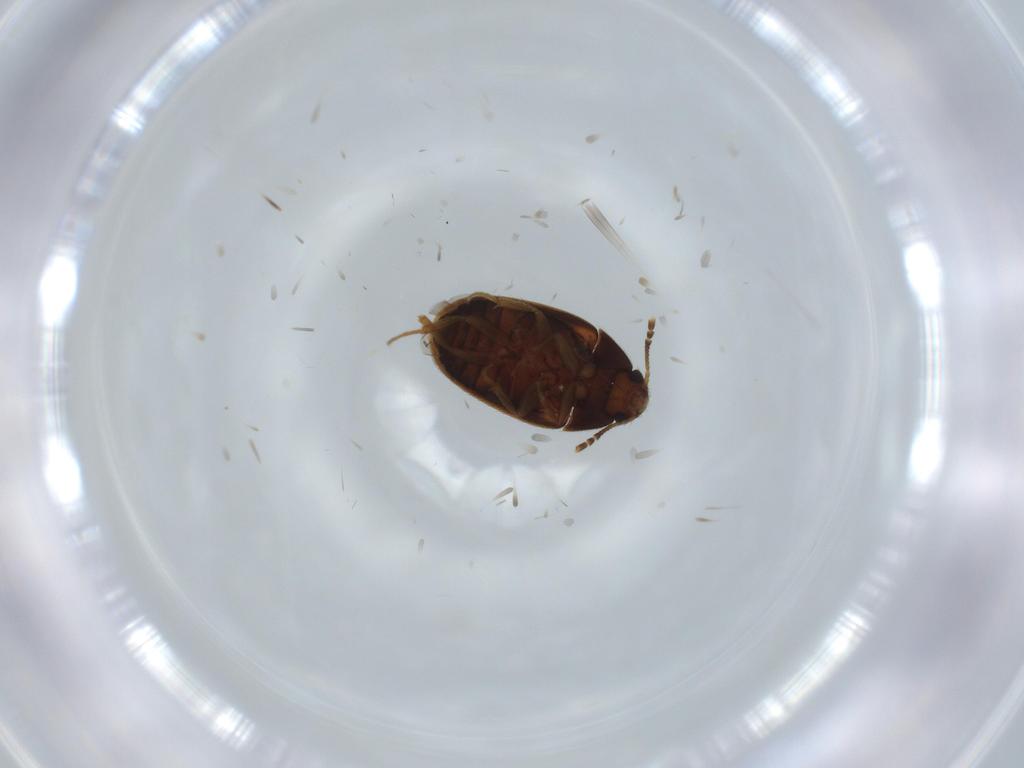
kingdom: Animalia
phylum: Arthropoda
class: Insecta
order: Coleoptera
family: Mycetophagidae
